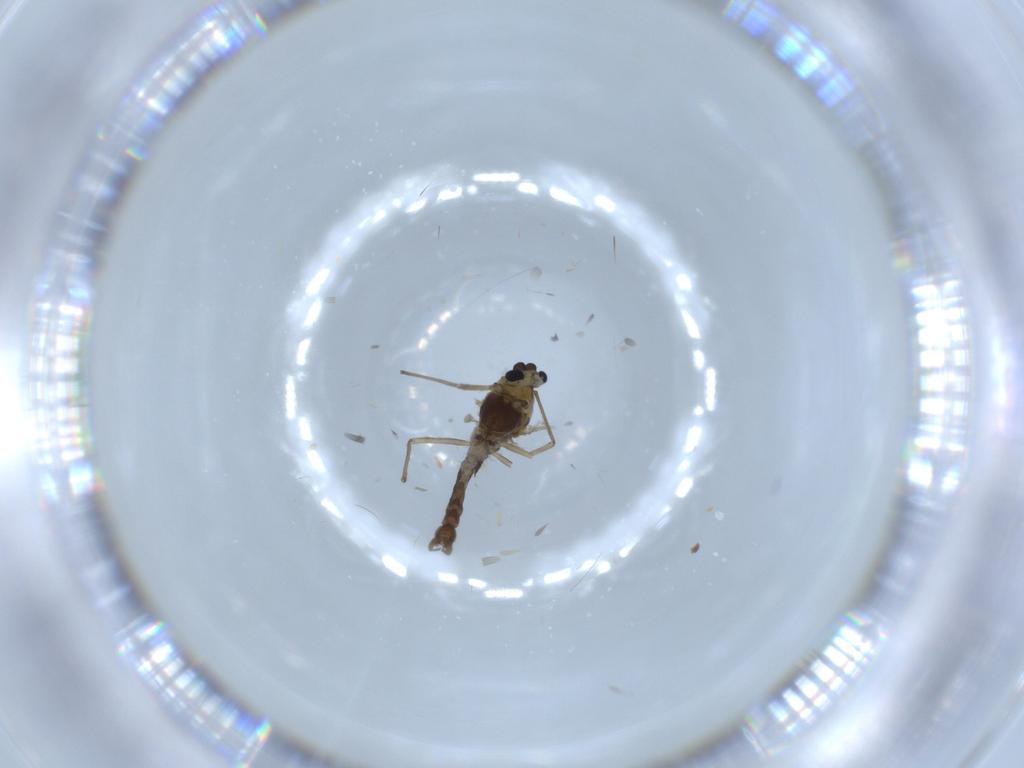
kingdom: Animalia
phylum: Arthropoda
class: Insecta
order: Diptera
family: Chironomidae
